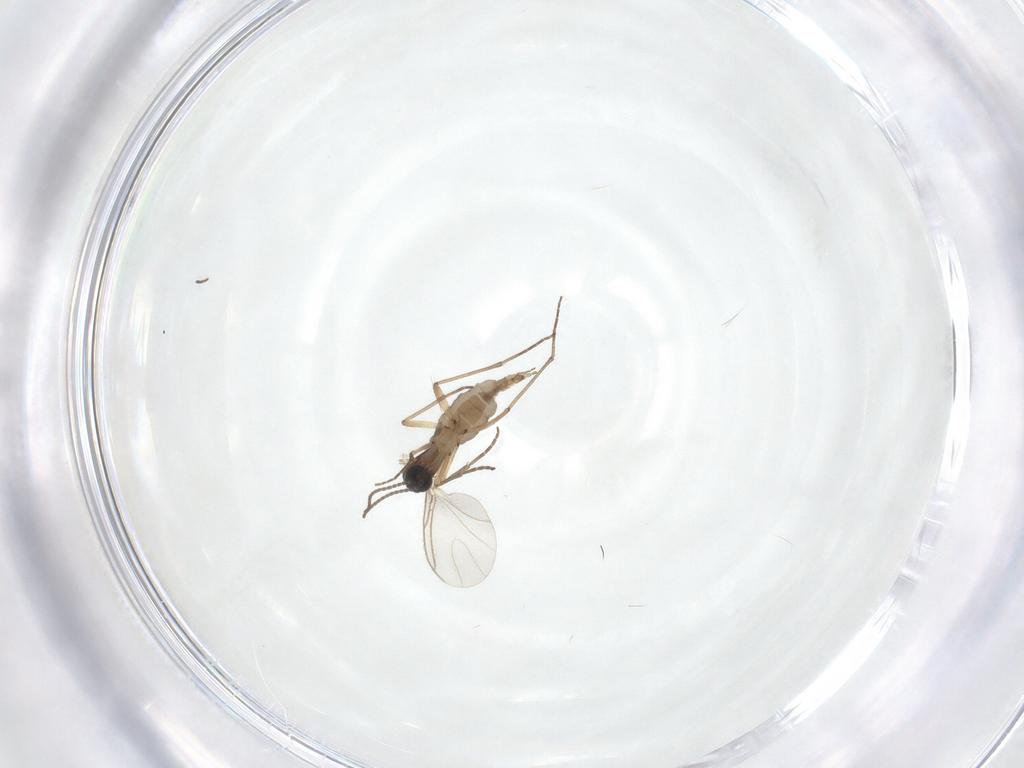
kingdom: Animalia
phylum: Arthropoda
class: Insecta
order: Diptera
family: Sciaridae
